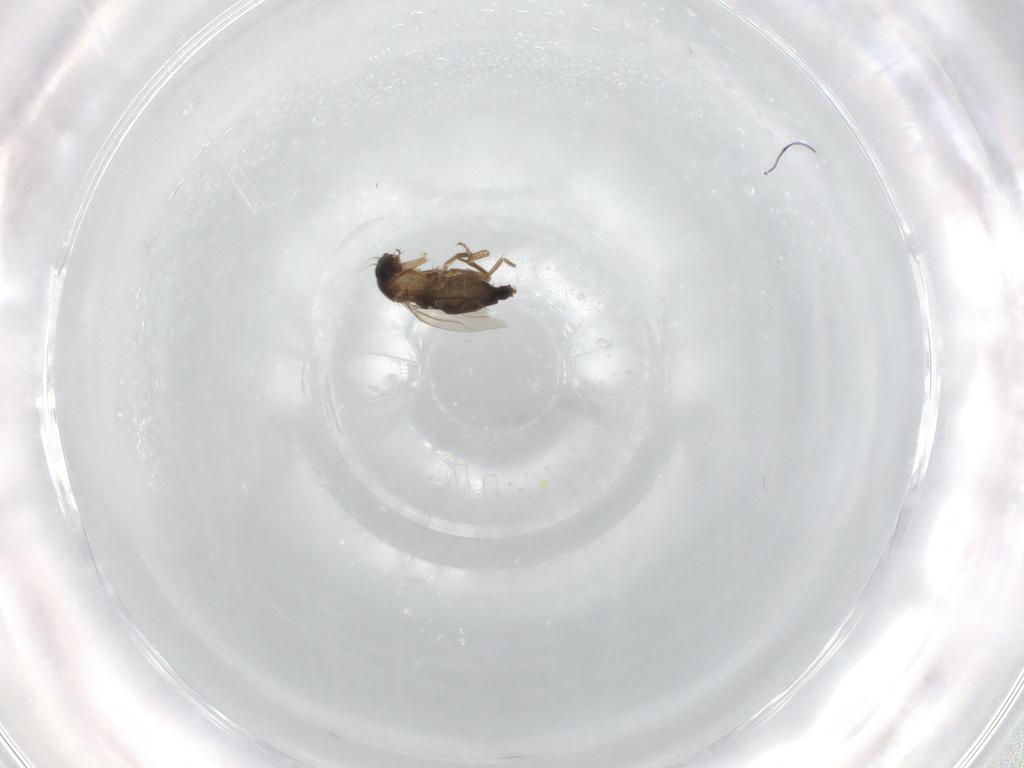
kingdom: Animalia
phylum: Arthropoda
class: Insecta
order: Diptera
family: Phoridae
